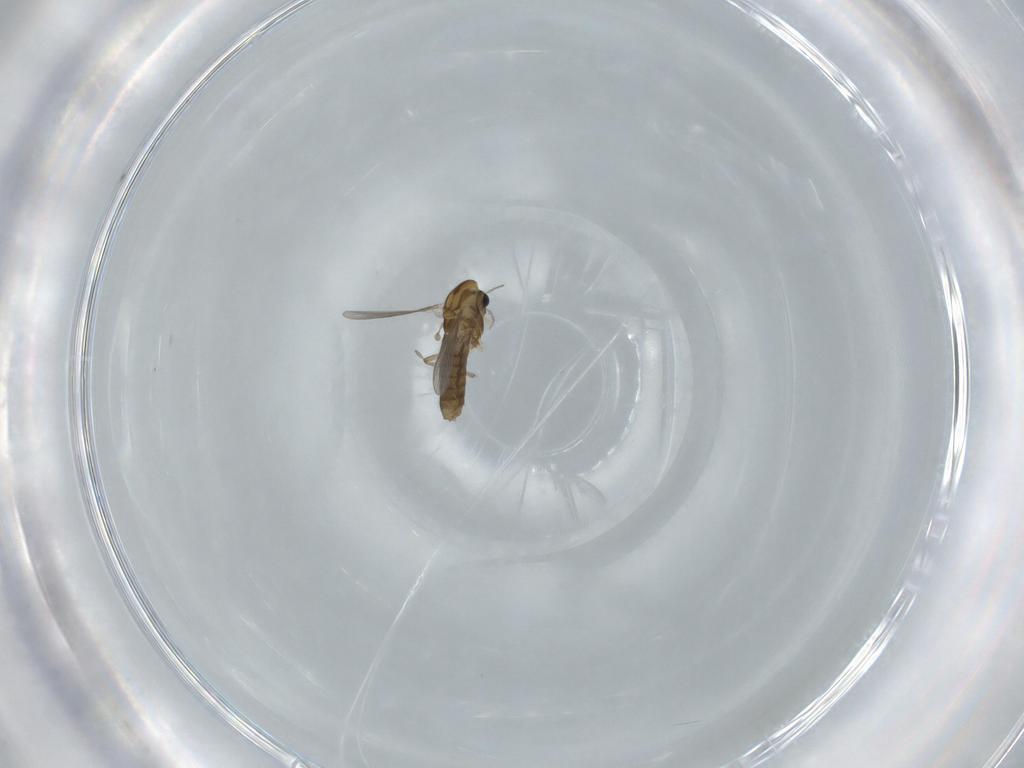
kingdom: Animalia
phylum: Arthropoda
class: Insecta
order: Diptera
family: Chironomidae
